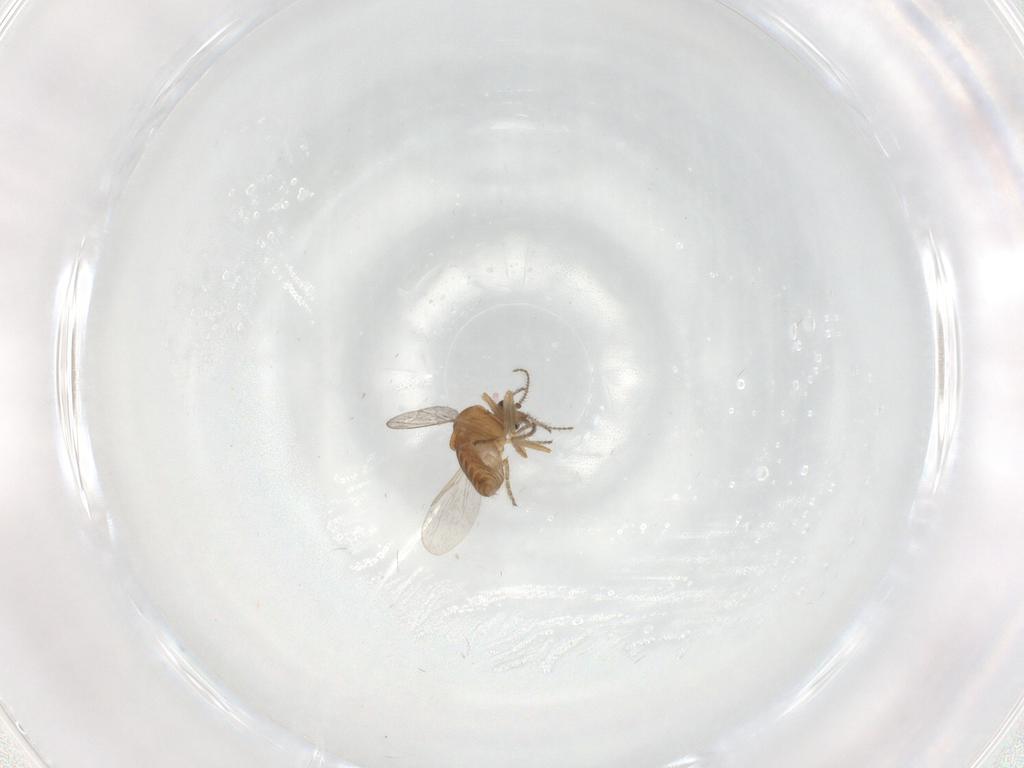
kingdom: Animalia
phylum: Arthropoda
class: Insecta
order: Diptera
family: Ceratopogonidae
